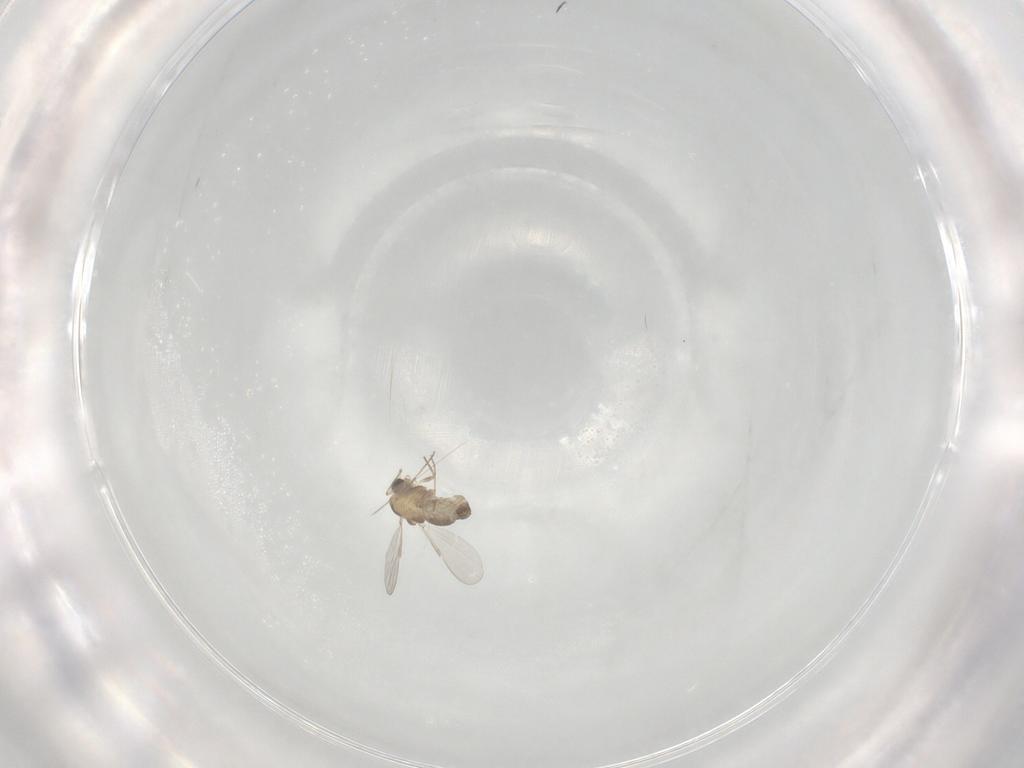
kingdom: Animalia
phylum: Arthropoda
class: Insecta
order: Diptera
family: Chironomidae
